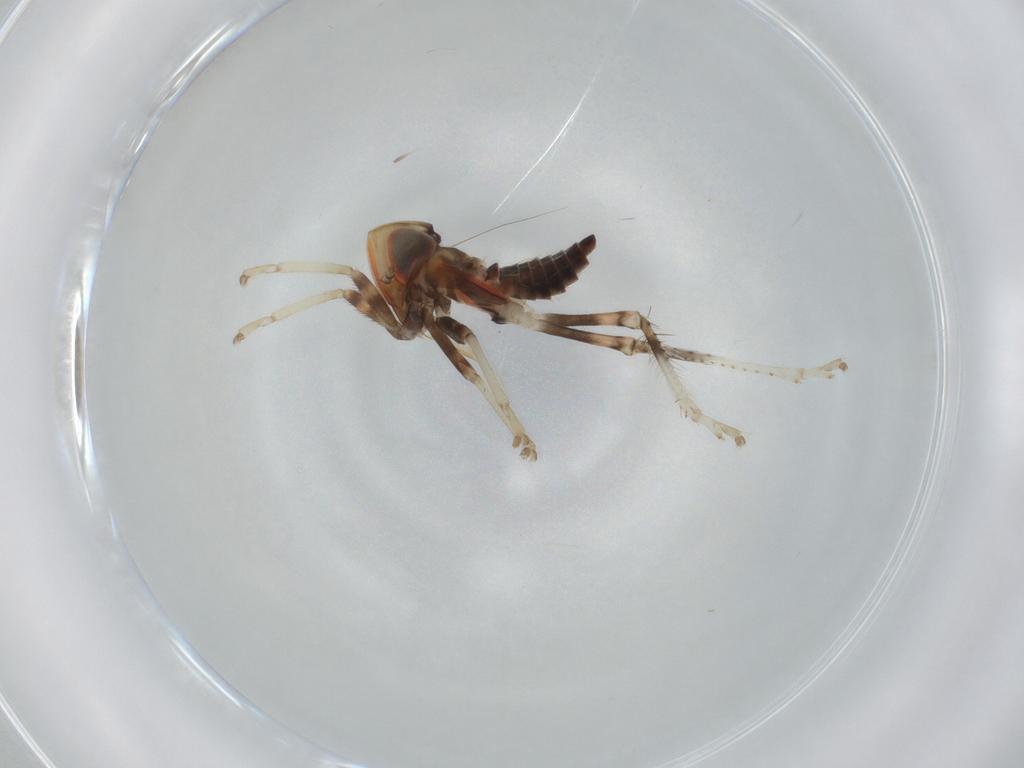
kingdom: Animalia
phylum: Arthropoda
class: Insecta
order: Hemiptera
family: Cicadellidae
